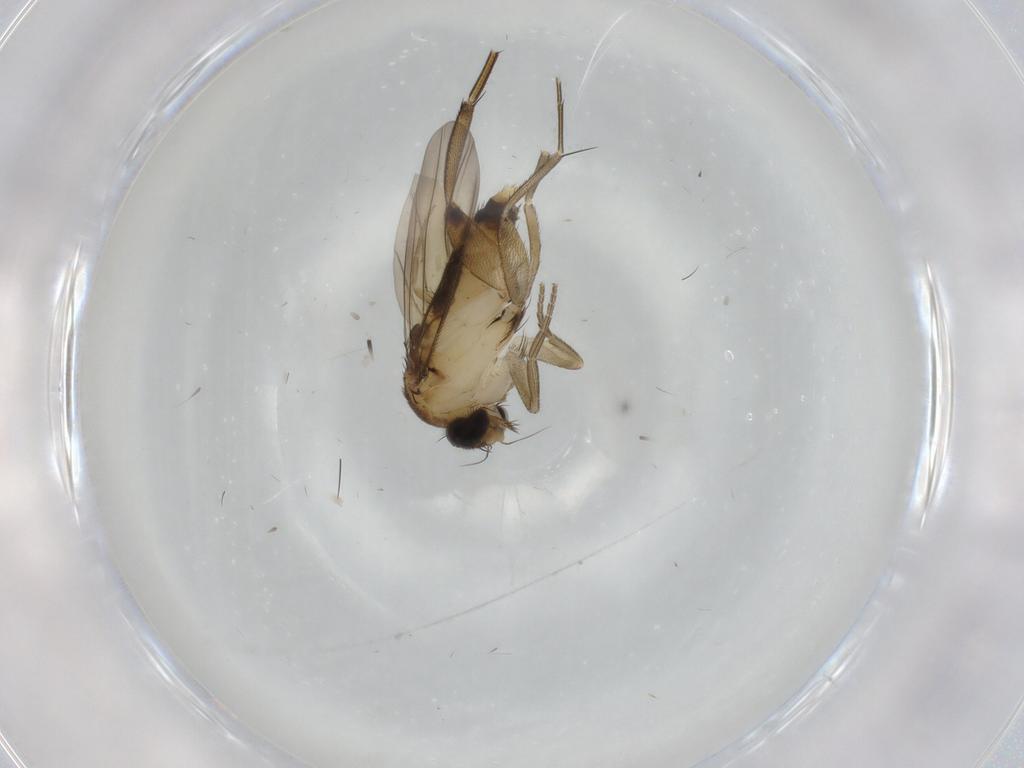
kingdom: Animalia
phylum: Arthropoda
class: Insecta
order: Diptera
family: Phoridae
